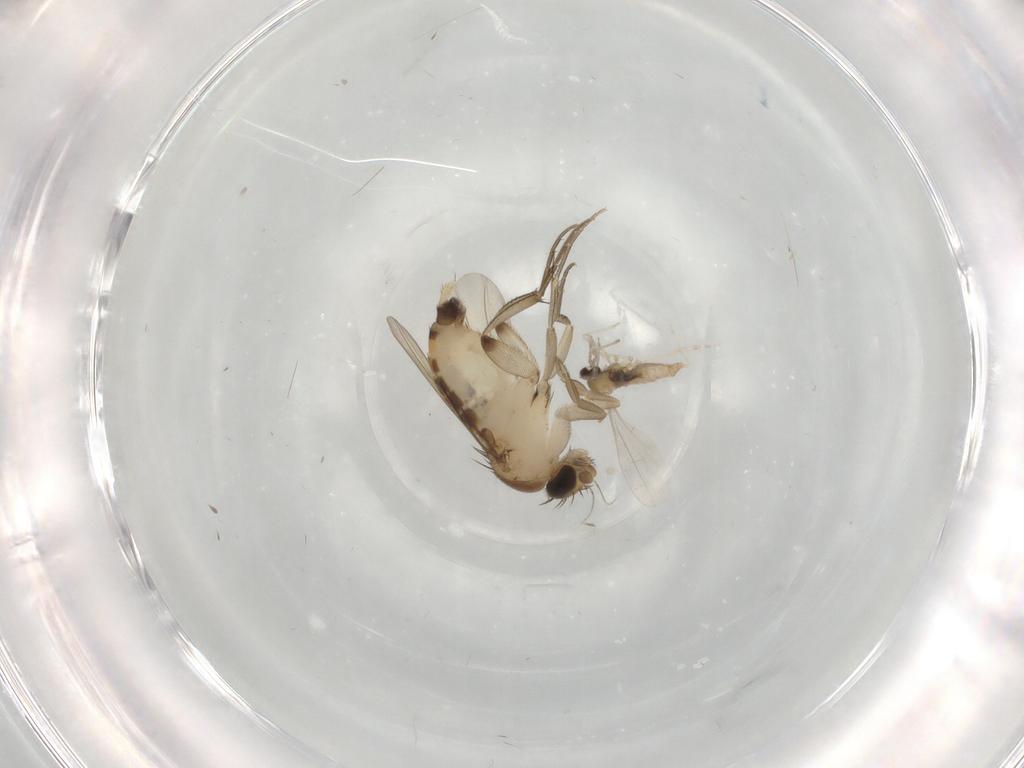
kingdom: Animalia
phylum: Arthropoda
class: Insecta
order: Diptera
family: Phoridae
